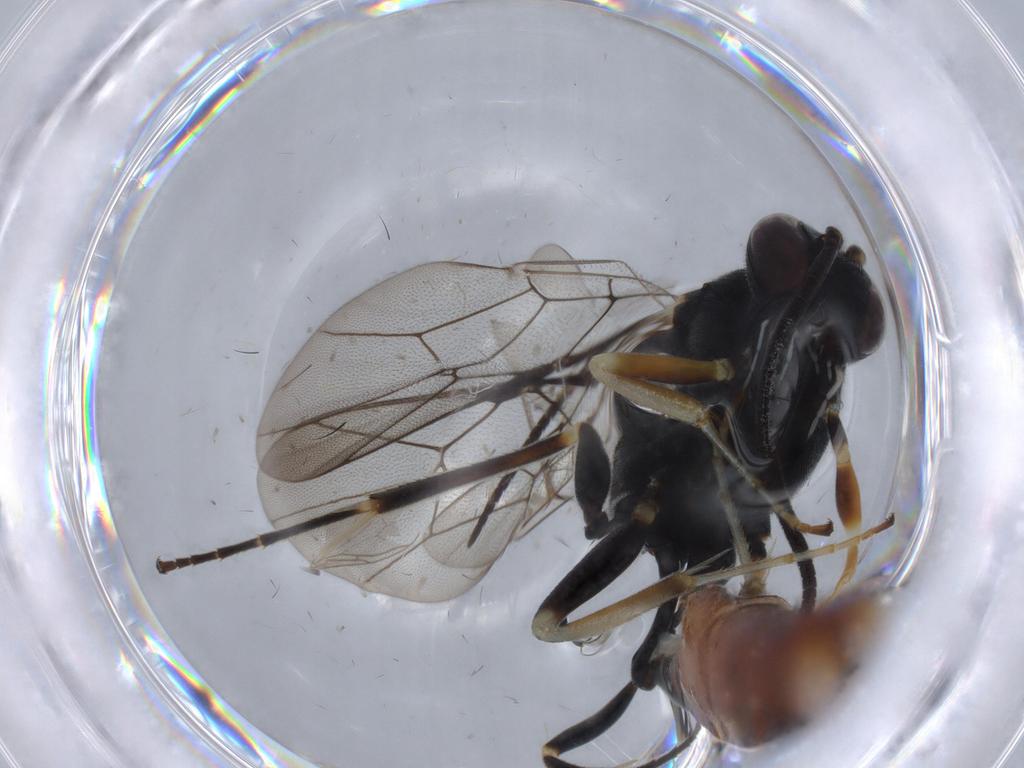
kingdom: Animalia
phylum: Arthropoda
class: Insecta
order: Hymenoptera
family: Ichneumonidae
